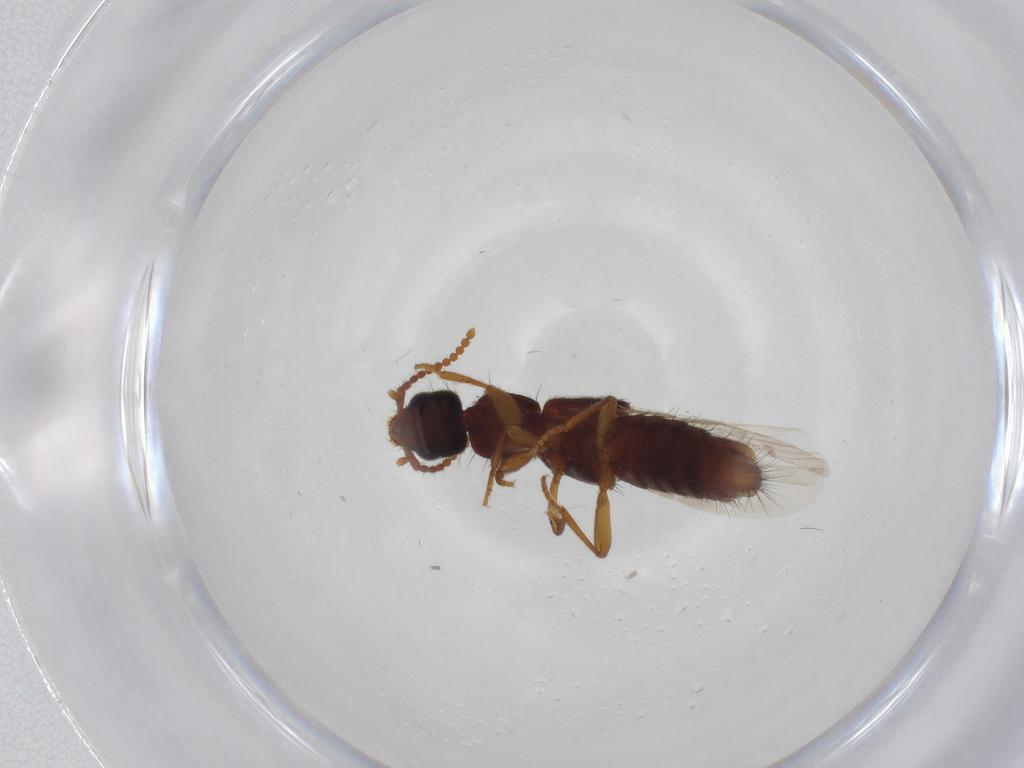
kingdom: Animalia
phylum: Arthropoda
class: Insecta
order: Coleoptera
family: Staphylinidae
